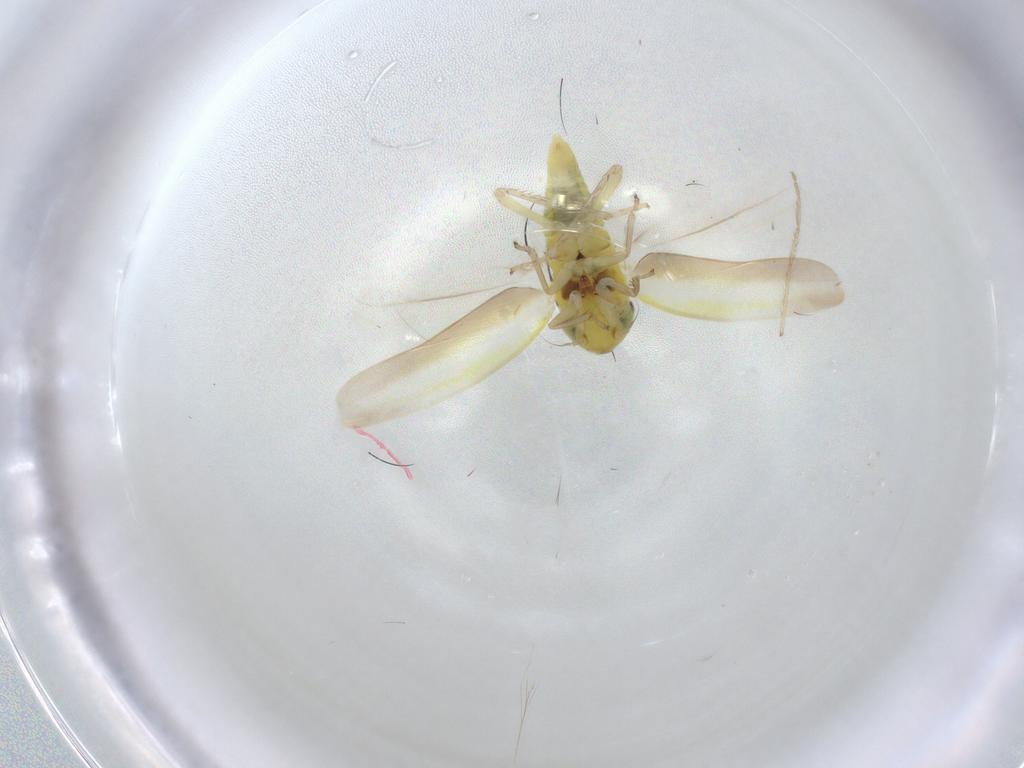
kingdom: Animalia
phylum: Arthropoda
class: Insecta
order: Hemiptera
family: Cicadellidae
